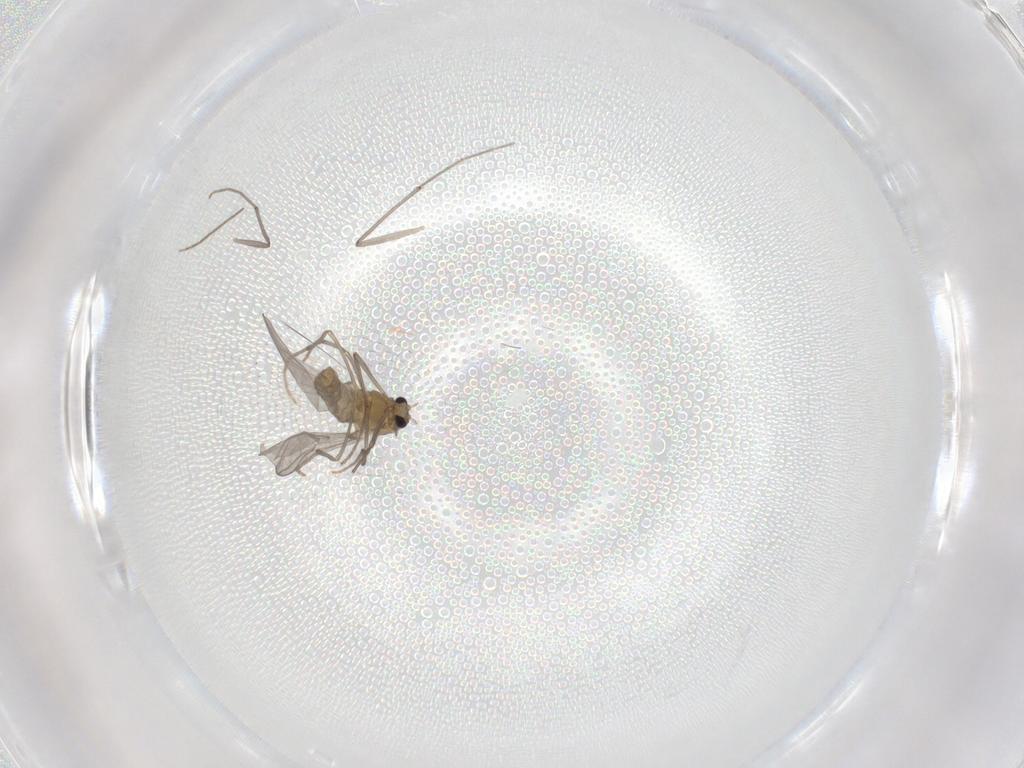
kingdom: Animalia
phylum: Arthropoda
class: Insecta
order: Diptera
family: Chironomidae
